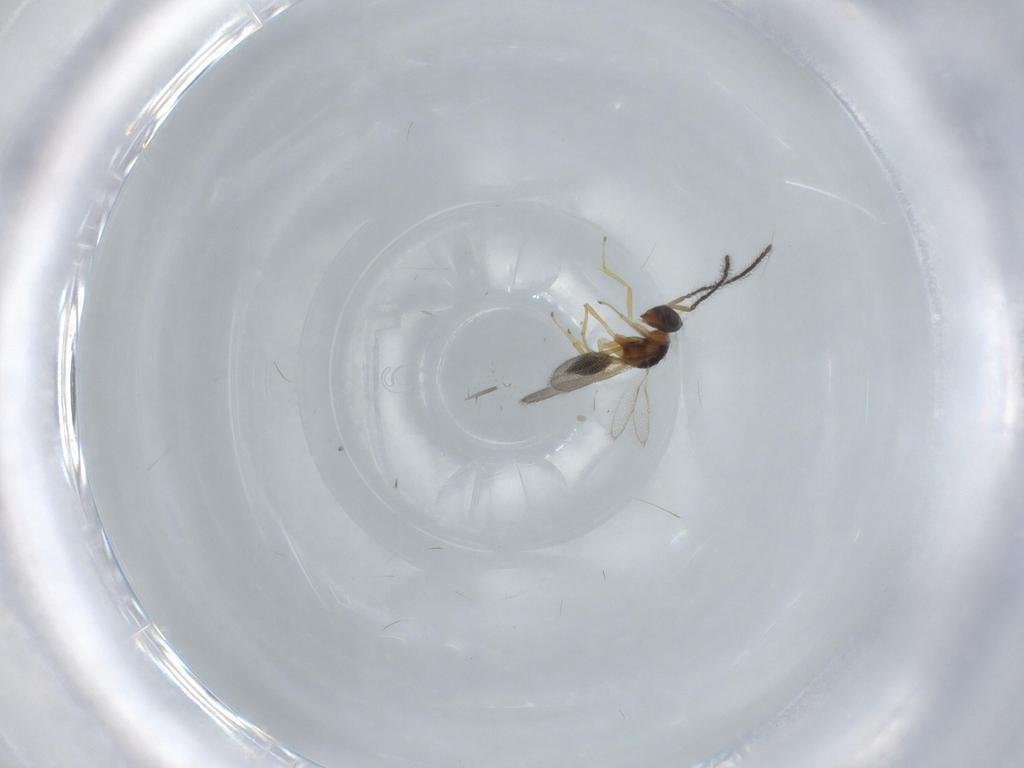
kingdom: Animalia
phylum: Arthropoda
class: Insecta
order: Hymenoptera
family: Diparidae
